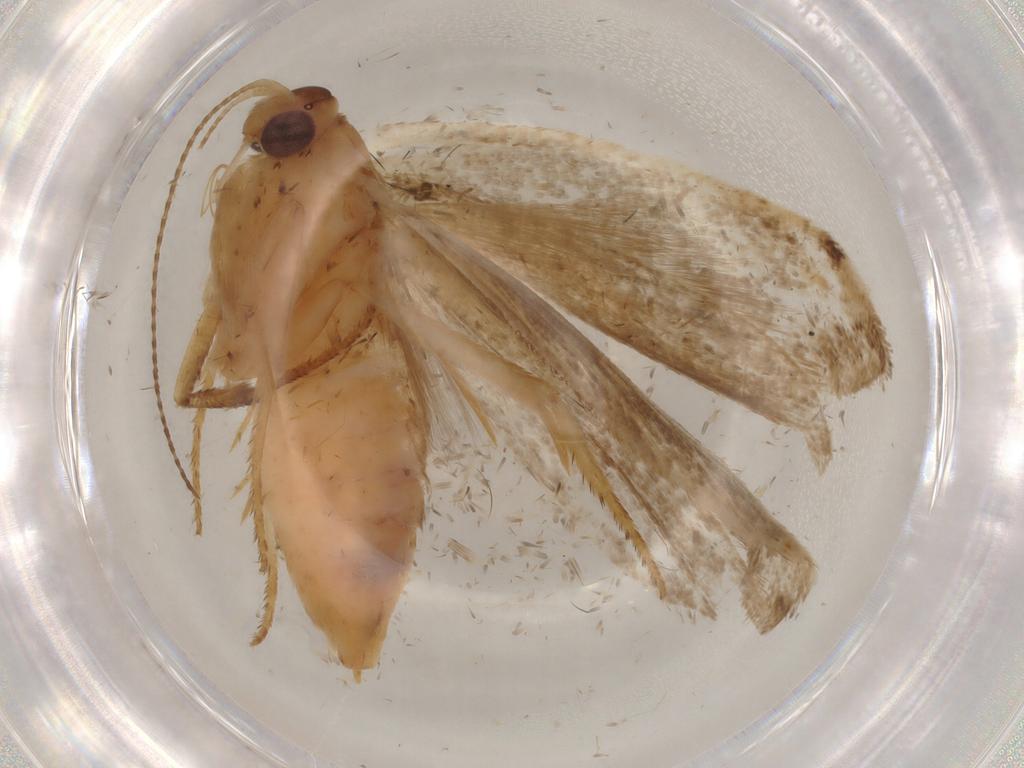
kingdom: Animalia
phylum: Arthropoda
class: Insecta
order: Lepidoptera
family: Gelechiidae
